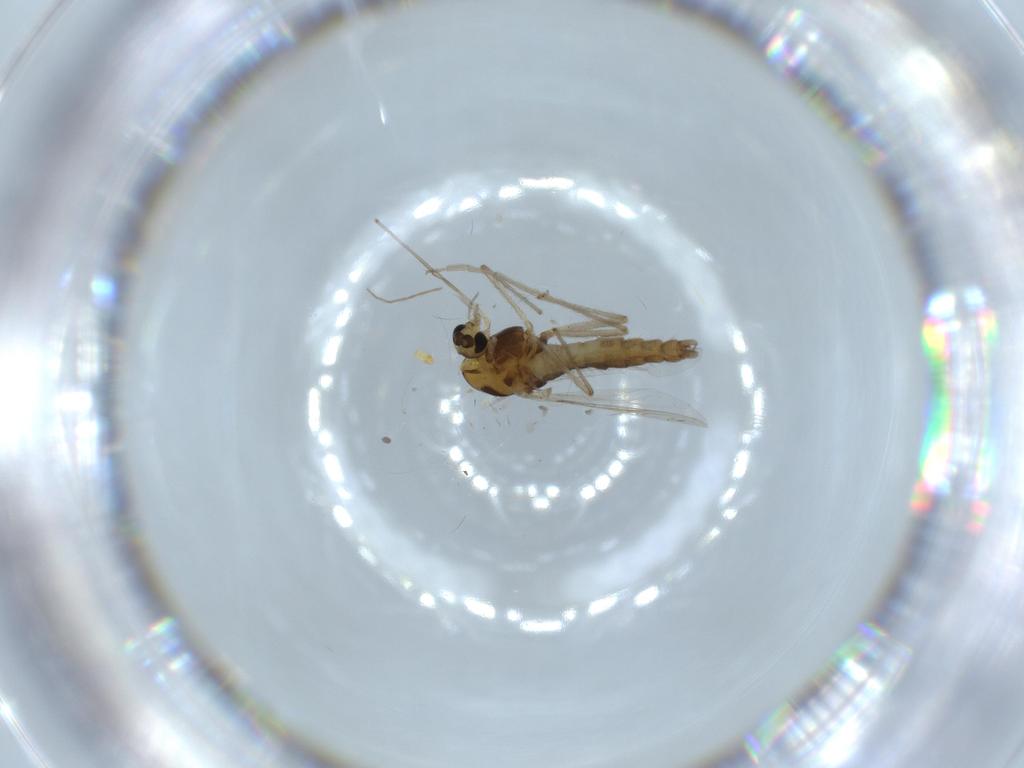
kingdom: Animalia
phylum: Arthropoda
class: Insecta
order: Diptera
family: Chironomidae
